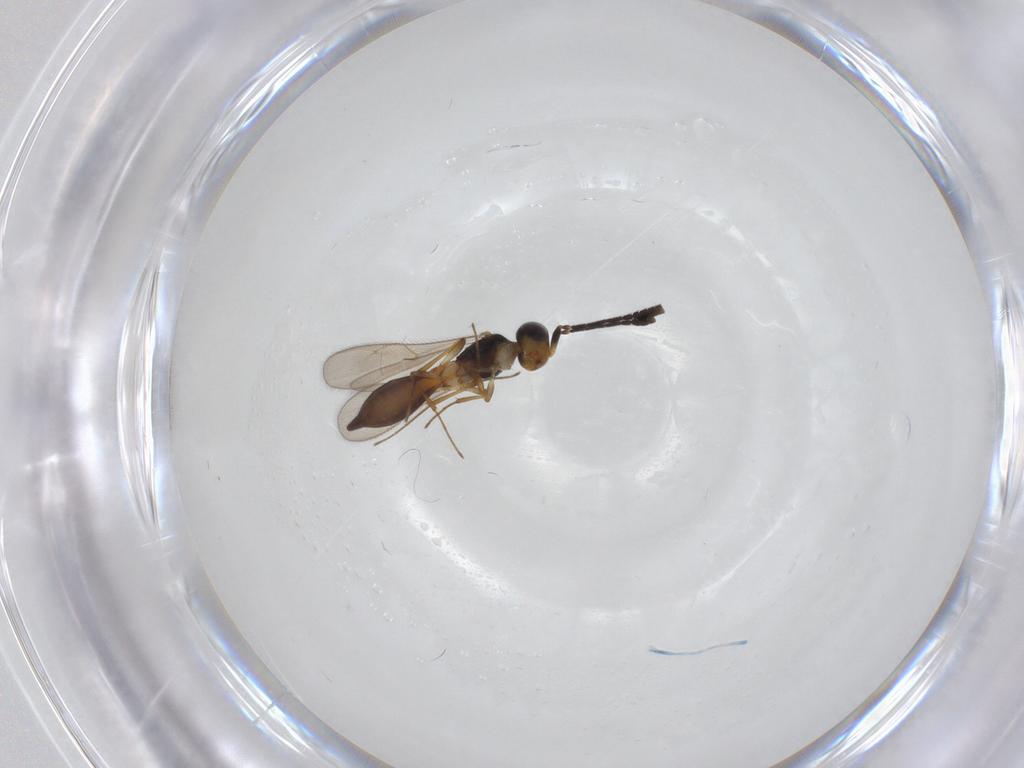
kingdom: Animalia
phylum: Arthropoda
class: Insecta
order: Hymenoptera
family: Scelionidae
